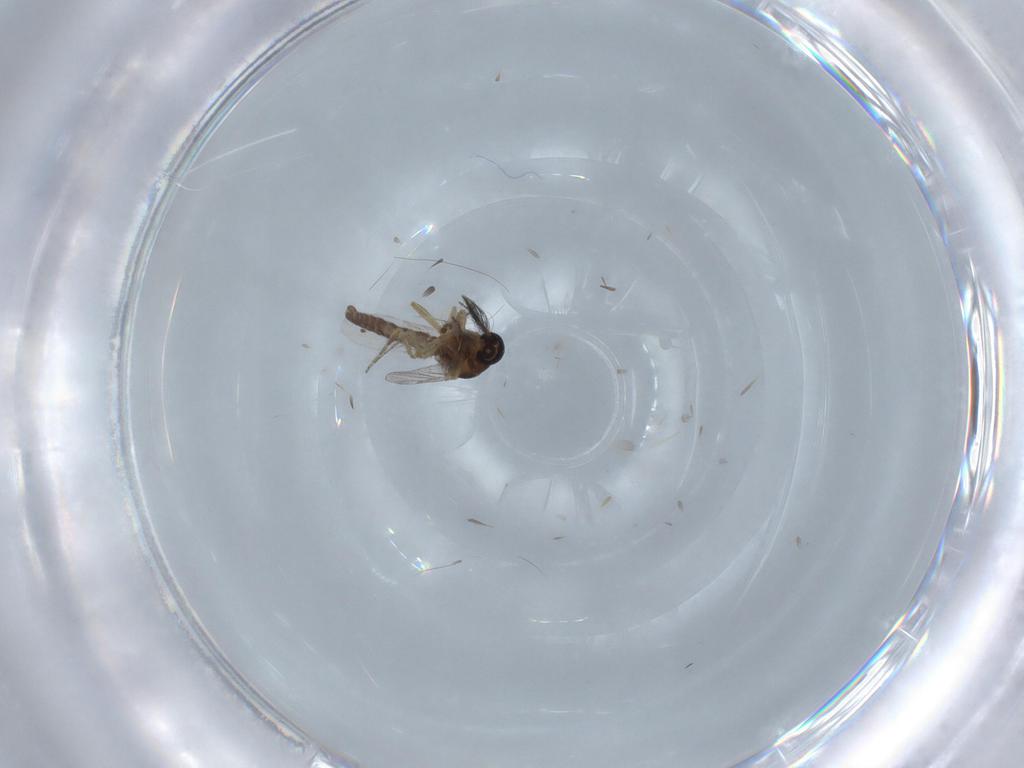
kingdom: Animalia
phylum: Arthropoda
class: Insecta
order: Diptera
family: Ceratopogonidae
